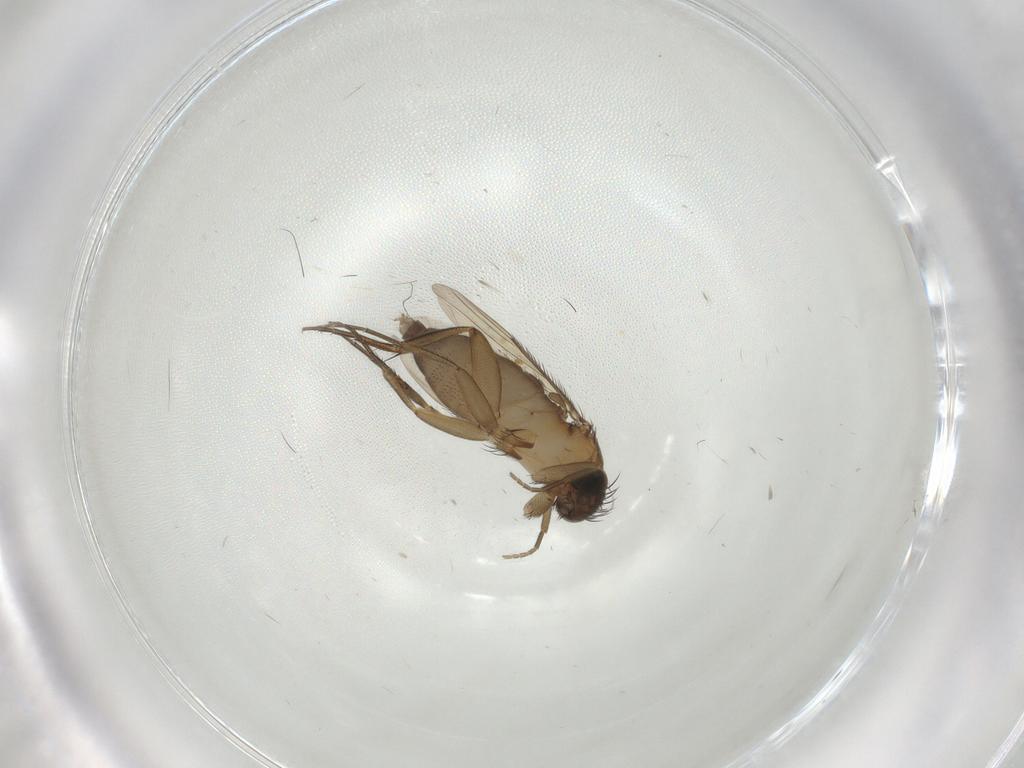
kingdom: Animalia
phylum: Arthropoda
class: Insecta
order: Diptera
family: Phoridae
